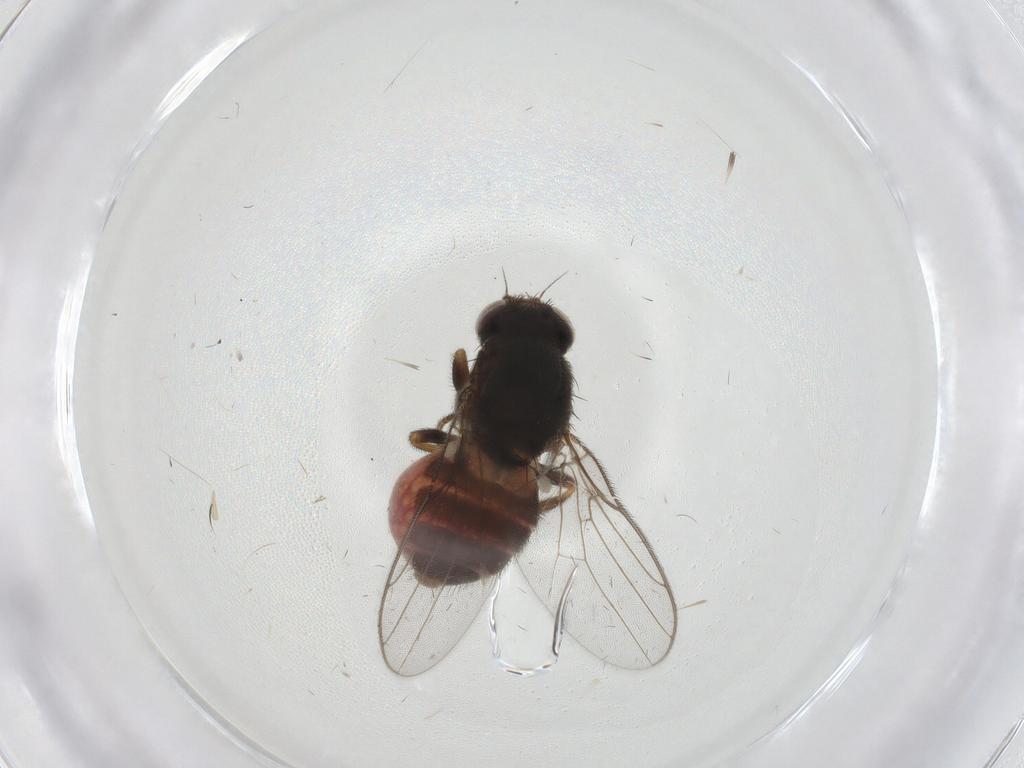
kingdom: Animalia
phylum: Arthropoda
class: Insecta
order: Diptera
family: Chloropidae
